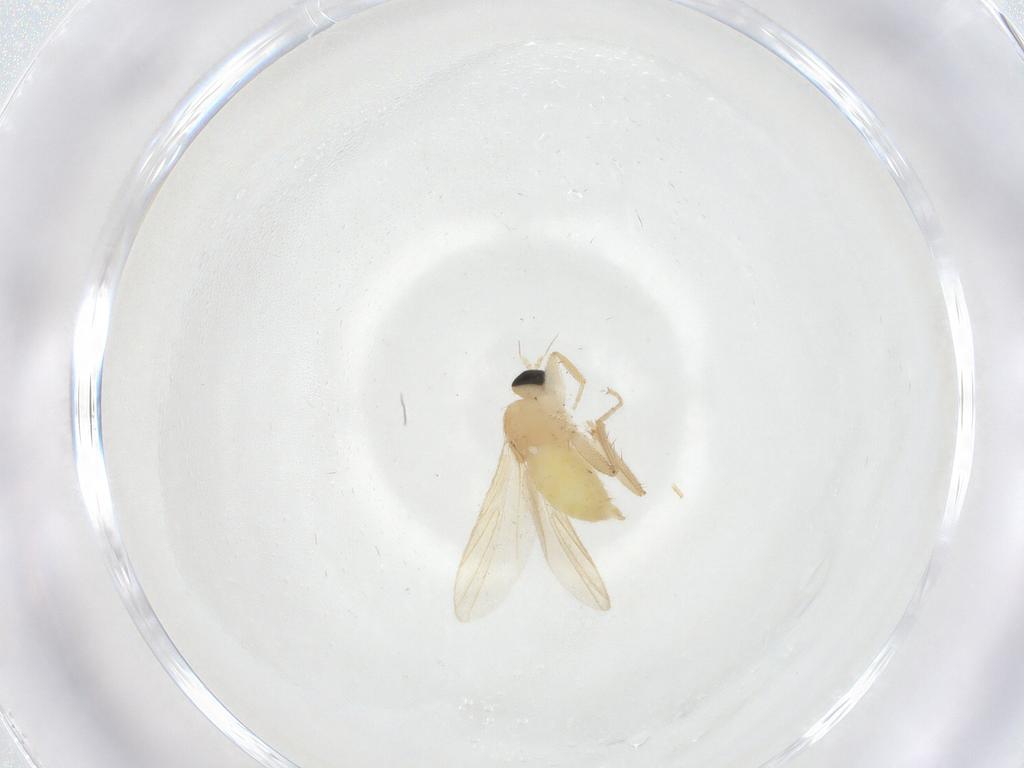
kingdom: Animalia
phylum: Arthropoda
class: Insecta
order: Diptera
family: Hybotidae
